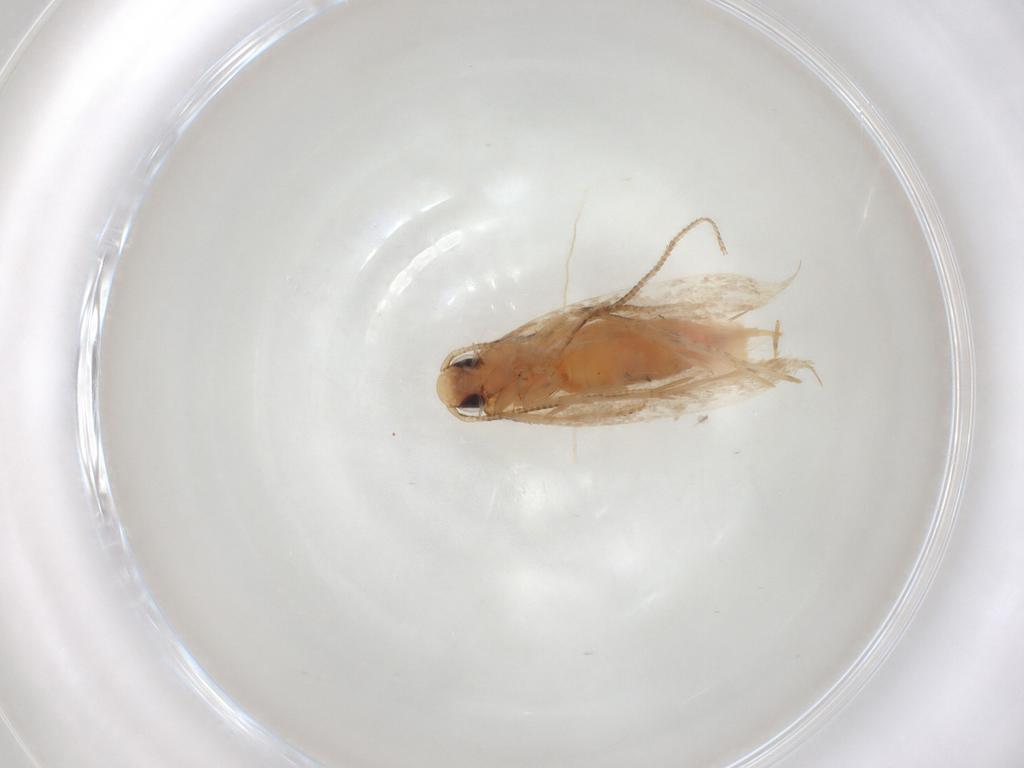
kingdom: Animalia
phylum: Arthropoda
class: Insecta
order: Lepidoptera
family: Tineidae
